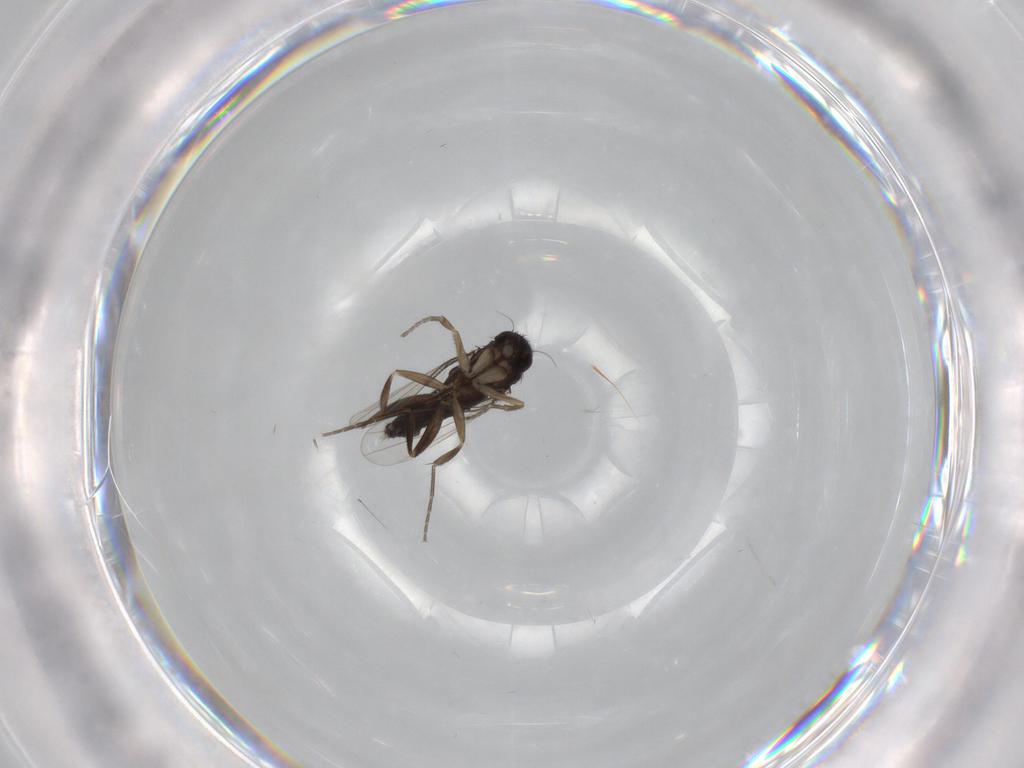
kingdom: Animalia
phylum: Arthropoda
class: Insecta
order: Diptera
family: Phoridae
